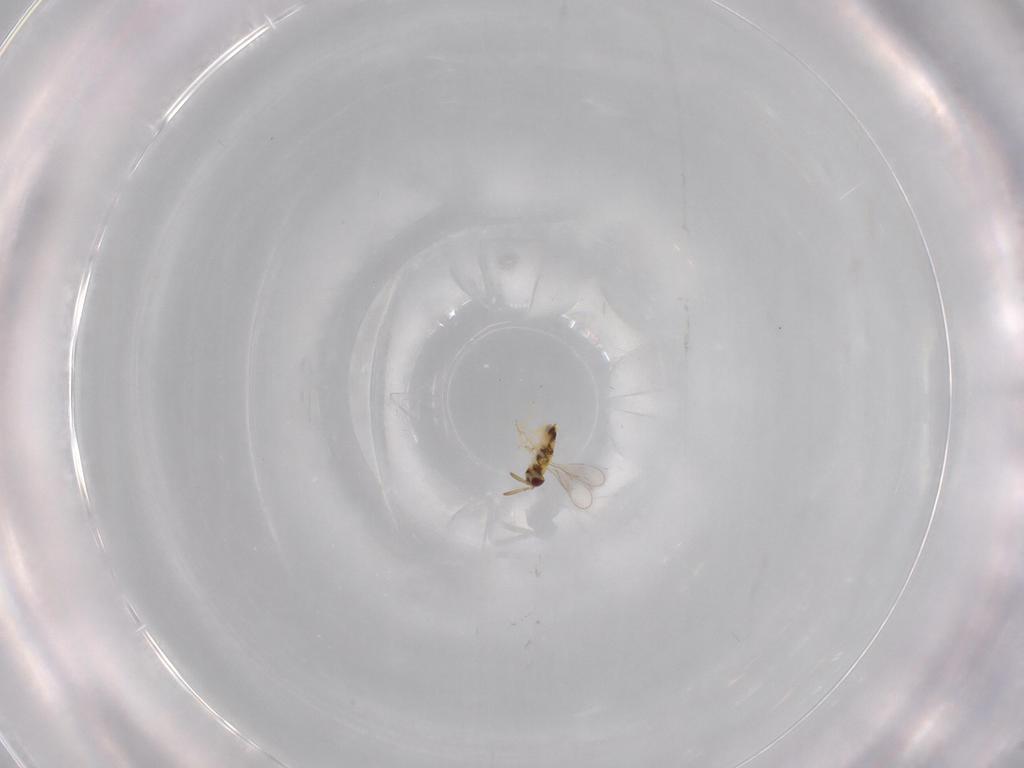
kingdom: Animalia
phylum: Arthropoda
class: Insecta
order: Hymenoptera
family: Aphelinidae
